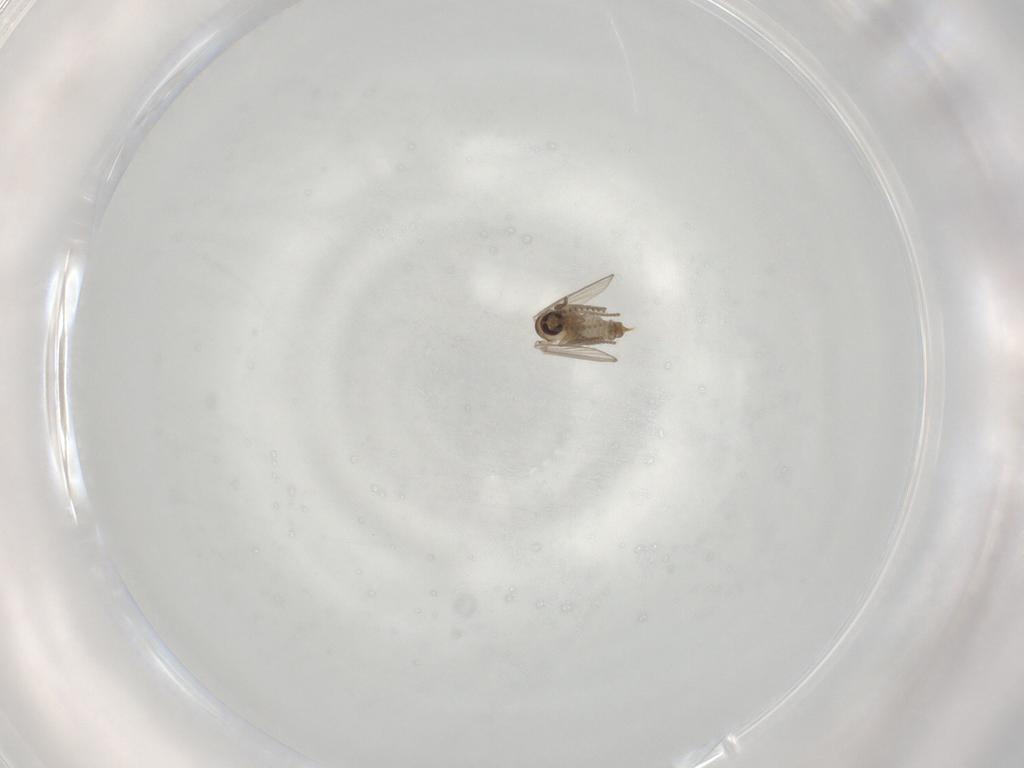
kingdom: Animalia
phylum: Arthropoda
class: Insecta
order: Diptera
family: Psychodidae
